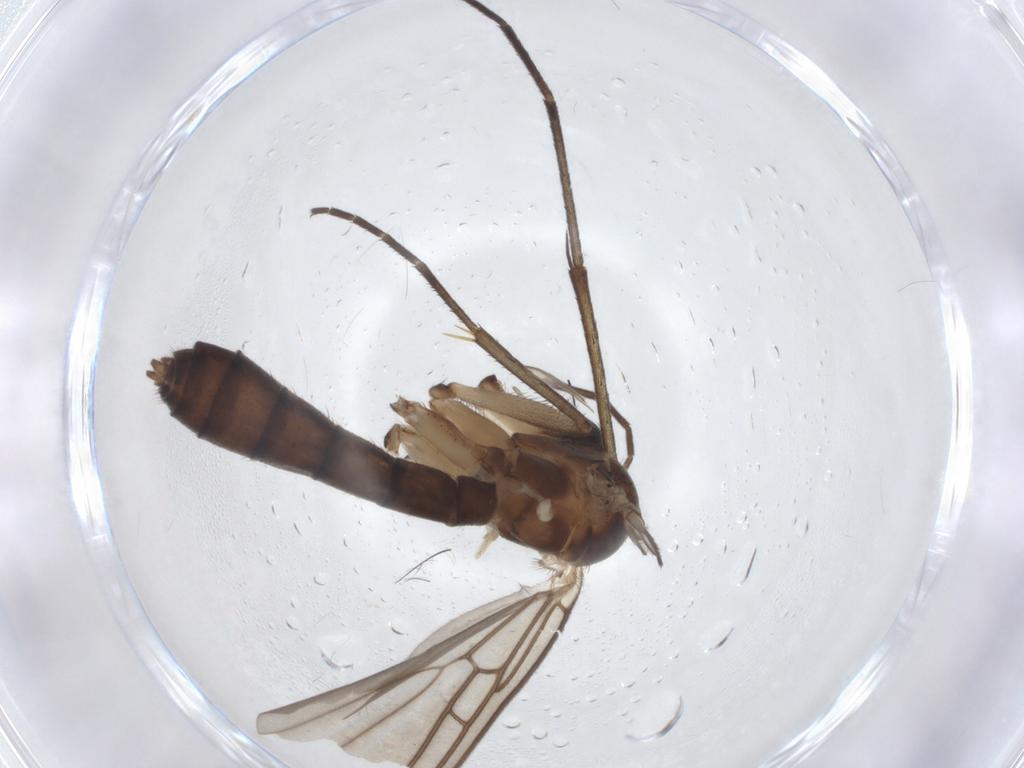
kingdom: Animalia
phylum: Arthropoda
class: Insecta
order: Diptera
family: Mycetophilidae
